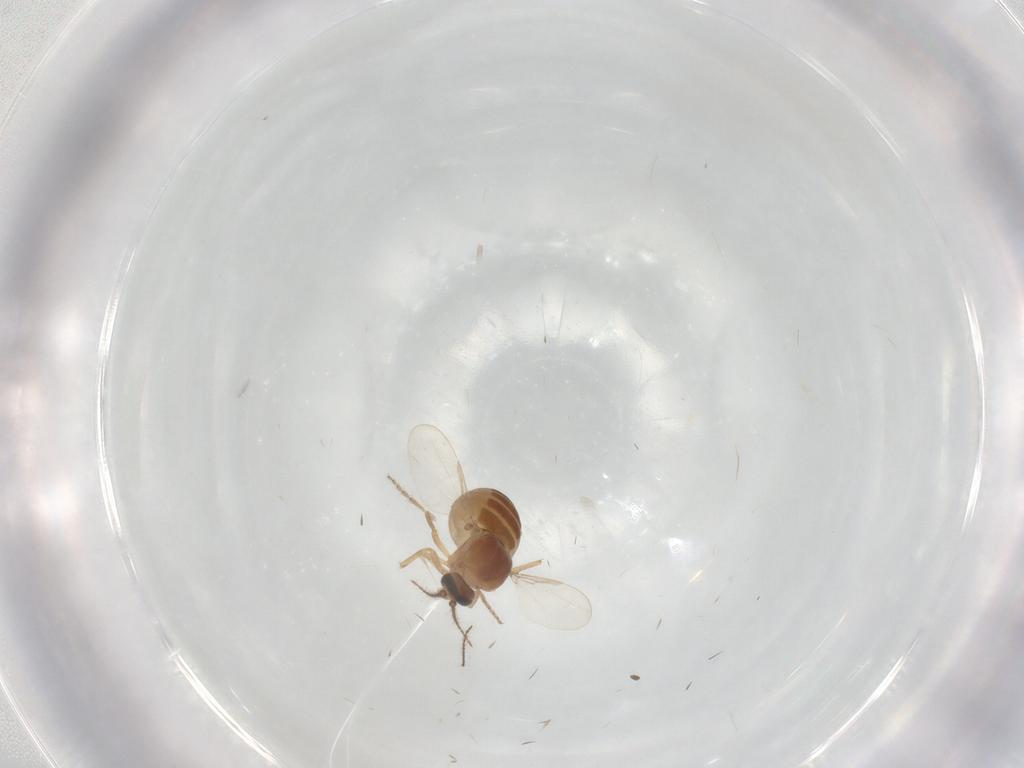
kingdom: Animalia
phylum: Arthropoda
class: Insecta
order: Diptera
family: Ceratopogonidae
